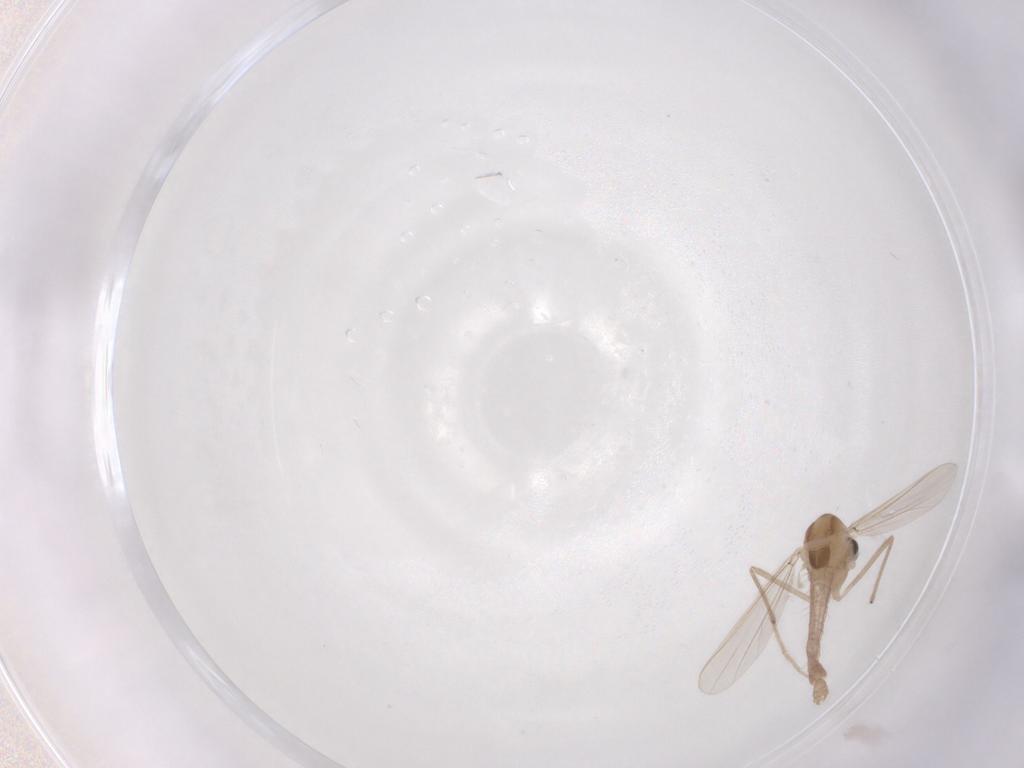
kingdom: Animalia
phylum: Arthropoda
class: Insecta
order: Diptera
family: Chironomidae
